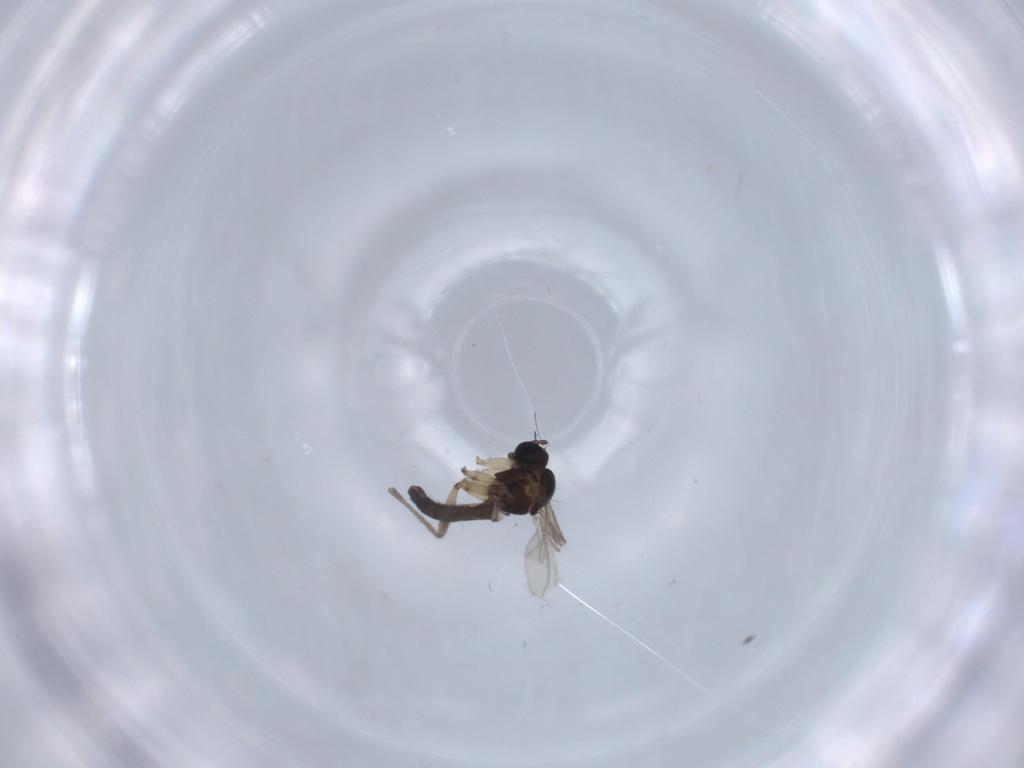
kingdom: Animalia
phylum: Arthropoda
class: Insecta
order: Diptera
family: Sciaridae
